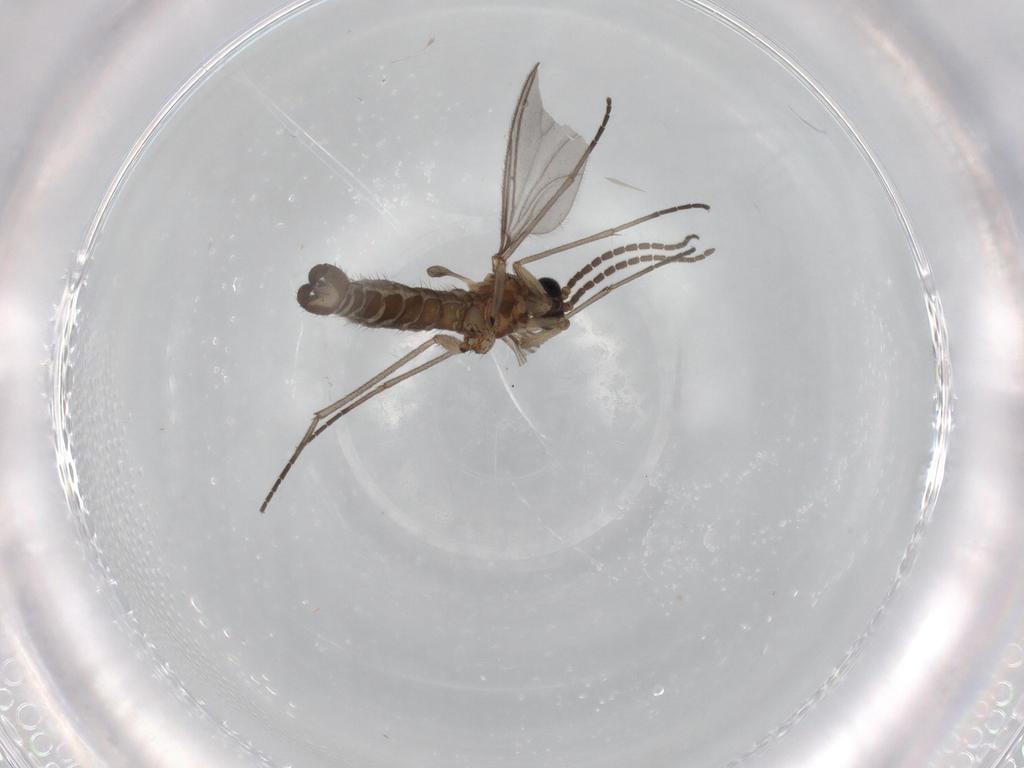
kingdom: Animalia
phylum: Arthropoda
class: Insecta
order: Diptera
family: Sciaridae
